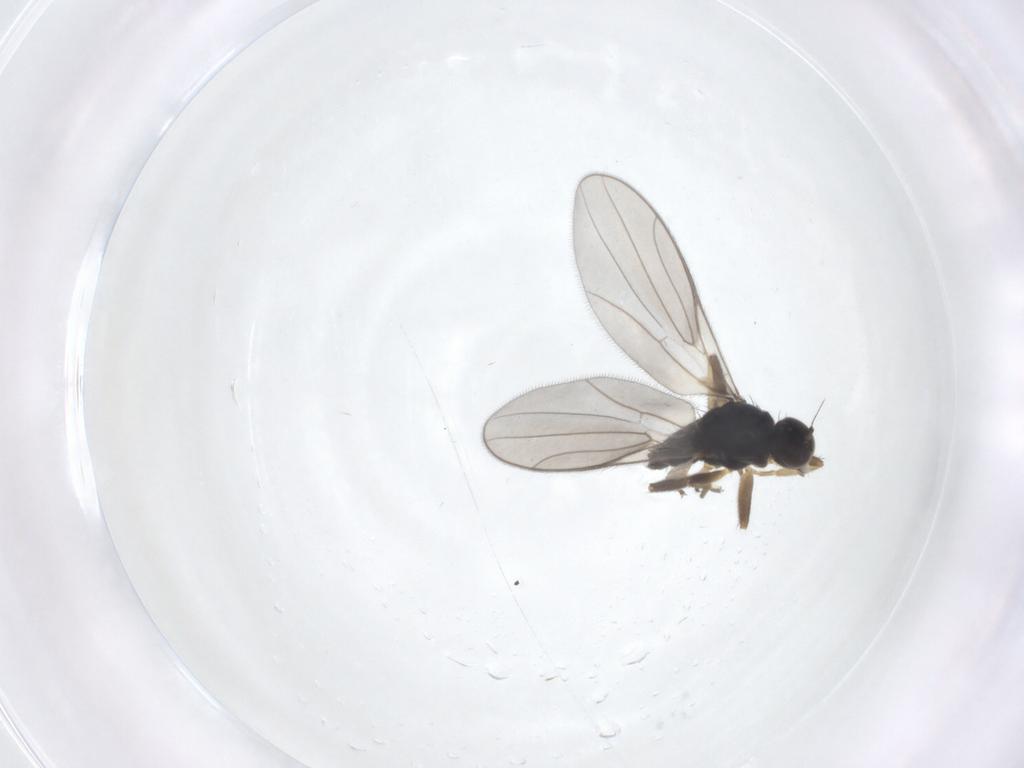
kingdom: Animalia
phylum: Arthropoda
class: Insecta
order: Diptera
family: Hybotidae
